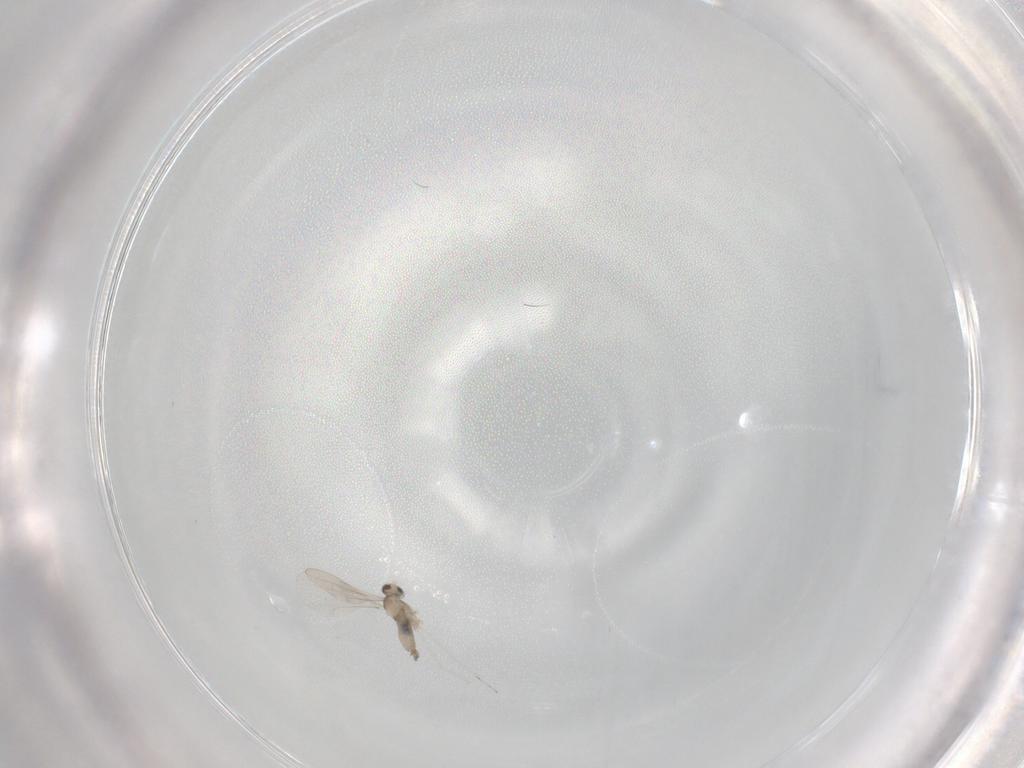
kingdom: Animalia
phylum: Arthropoda
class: Insecta
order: Diptera
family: Cecidomyiidae
